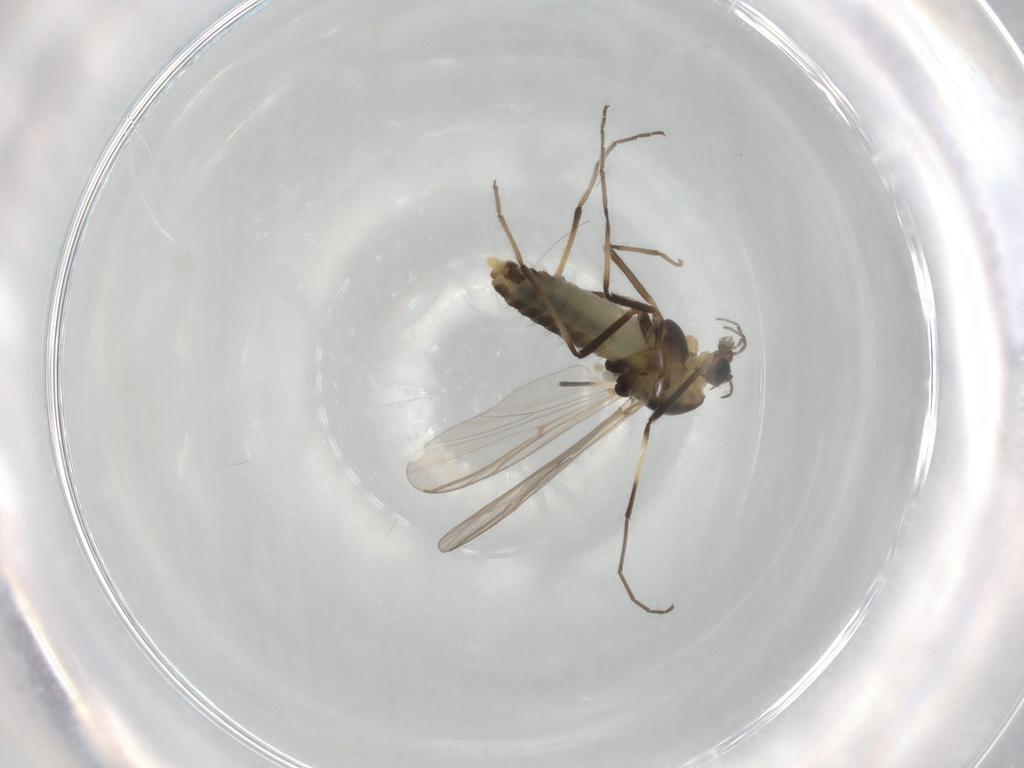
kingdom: Animalia
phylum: Arthropoda
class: Insecta
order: Diptera
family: Chironomidae
